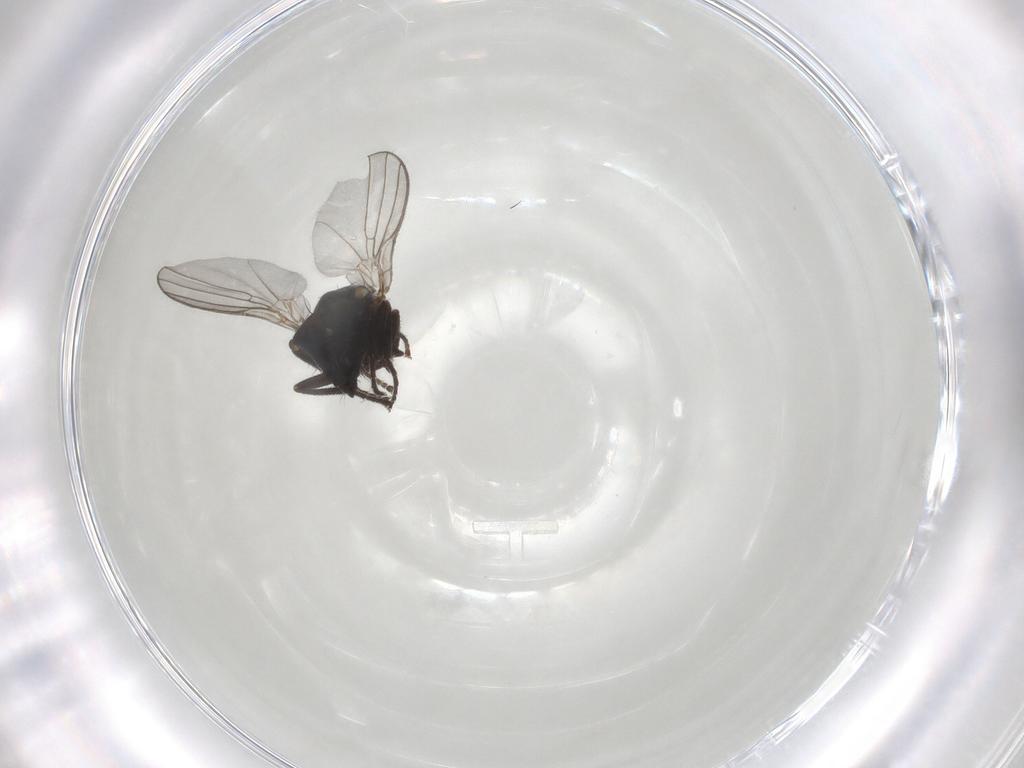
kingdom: Animalia
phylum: Arthropoda
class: Insecta
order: Diptera
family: Agromyzidae
